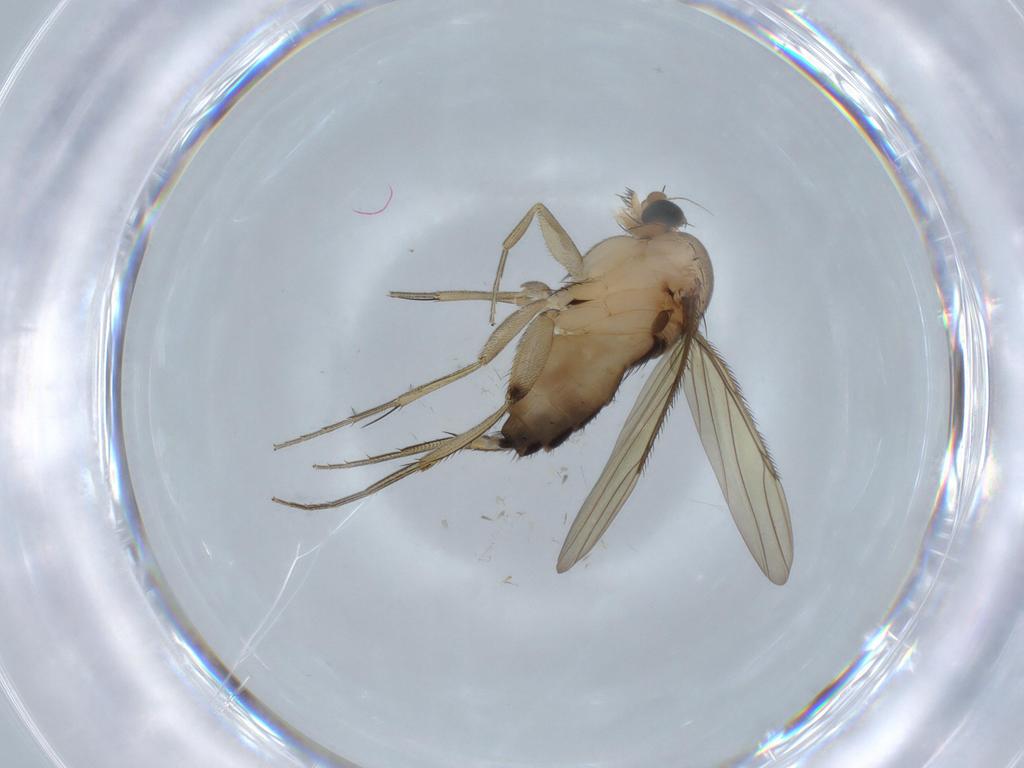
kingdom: Animalia
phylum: Arthropoda
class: Insecta
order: Diptera
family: Phoridae
